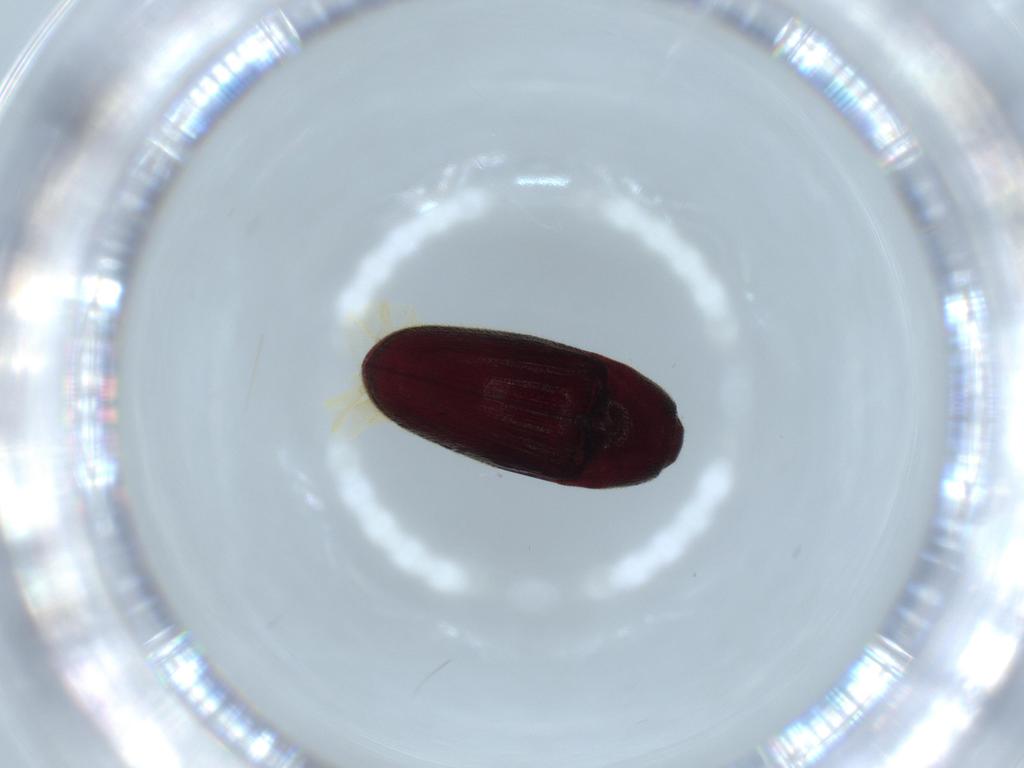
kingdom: Animalia
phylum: Arthropoda
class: Insecta
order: Coleoptera
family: Throscidae
